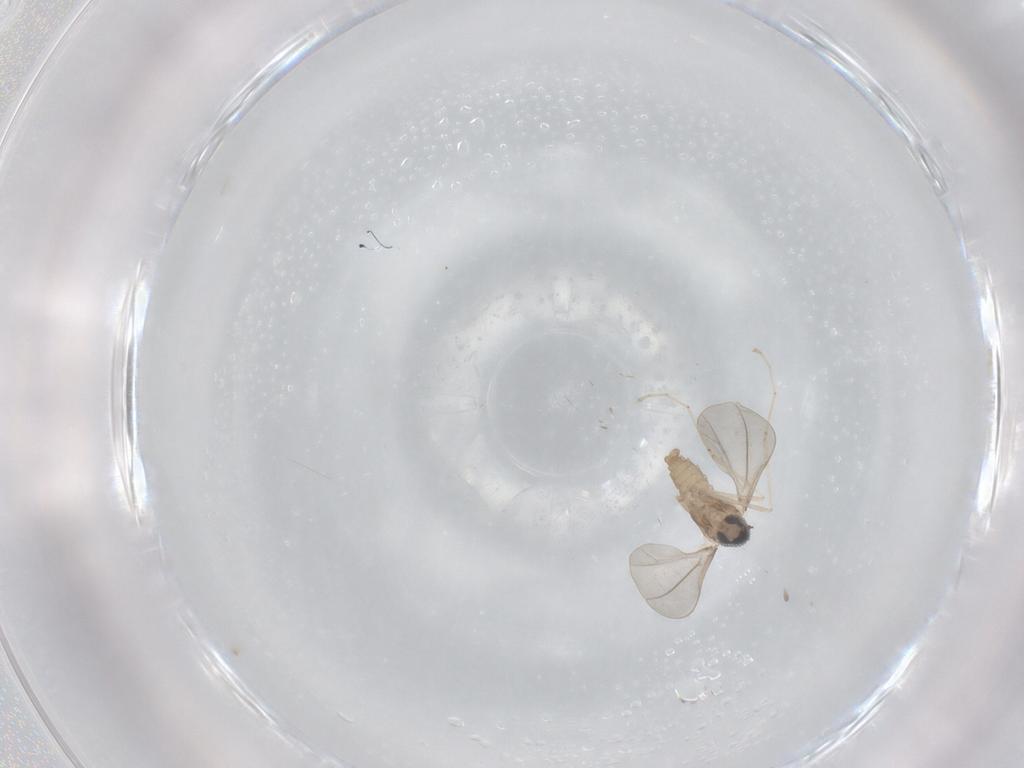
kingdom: Animalia
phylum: Arthropoda
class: Insecta
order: Diptera
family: Cecidomyiidae
